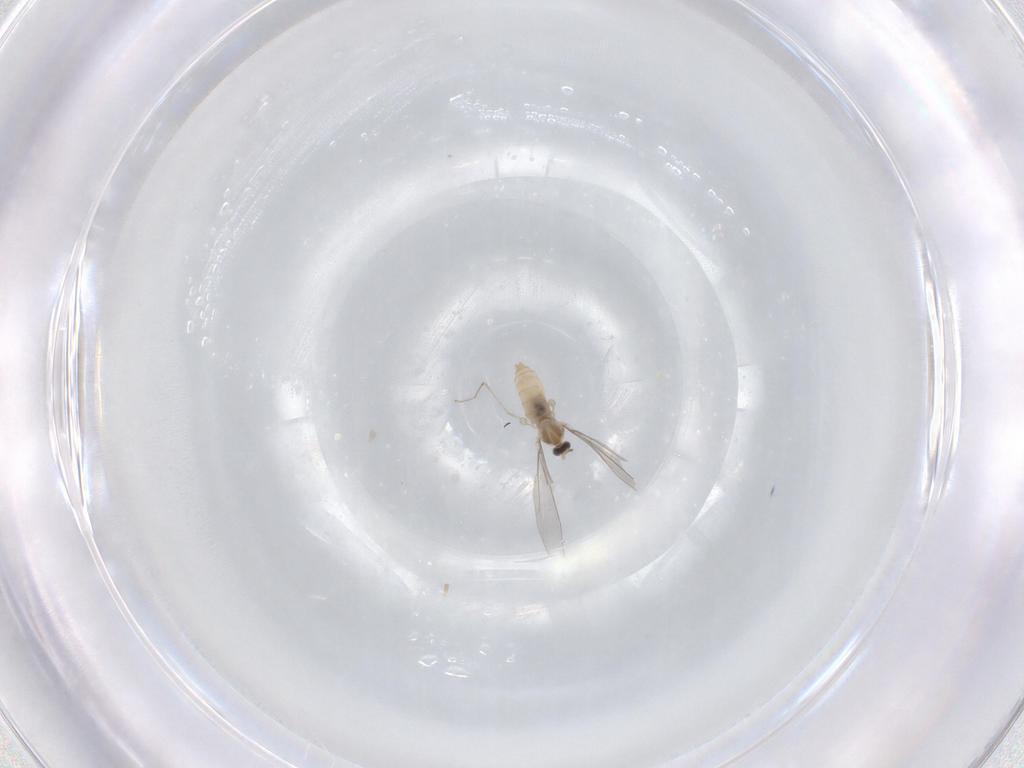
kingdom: Animalia
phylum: Arthropoda
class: Insecta
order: Diptera
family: Cecidomyiidae
